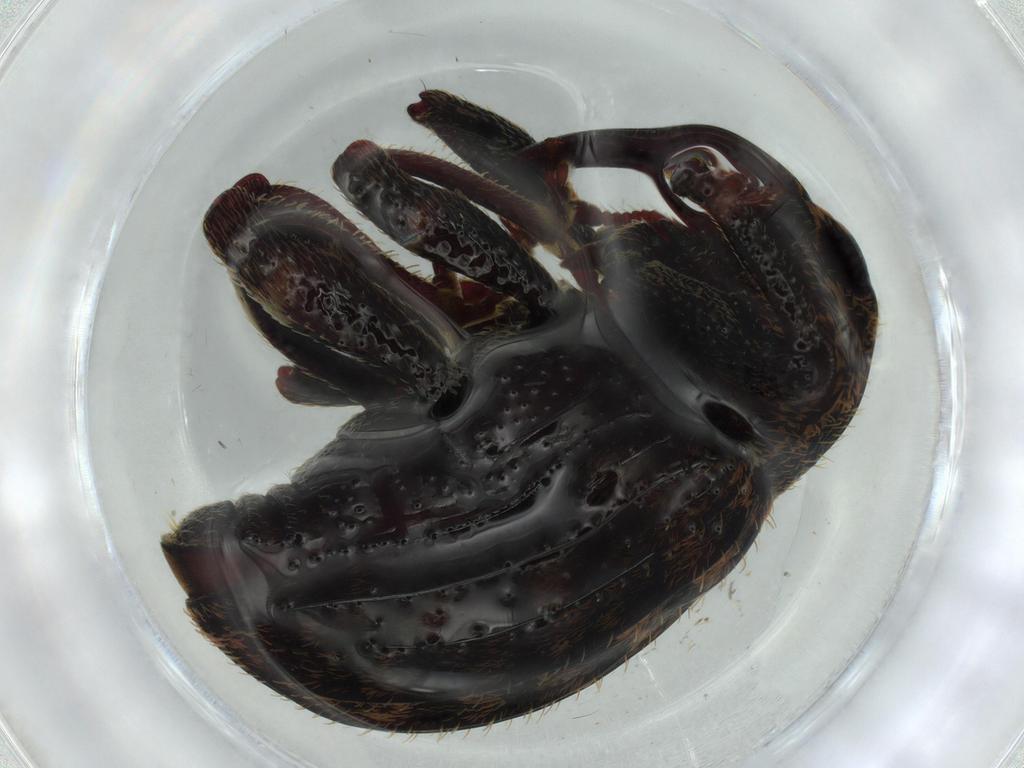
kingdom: Animalia
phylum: Arthropoda
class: Insecta
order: Coleoptera
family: Curculionidae
